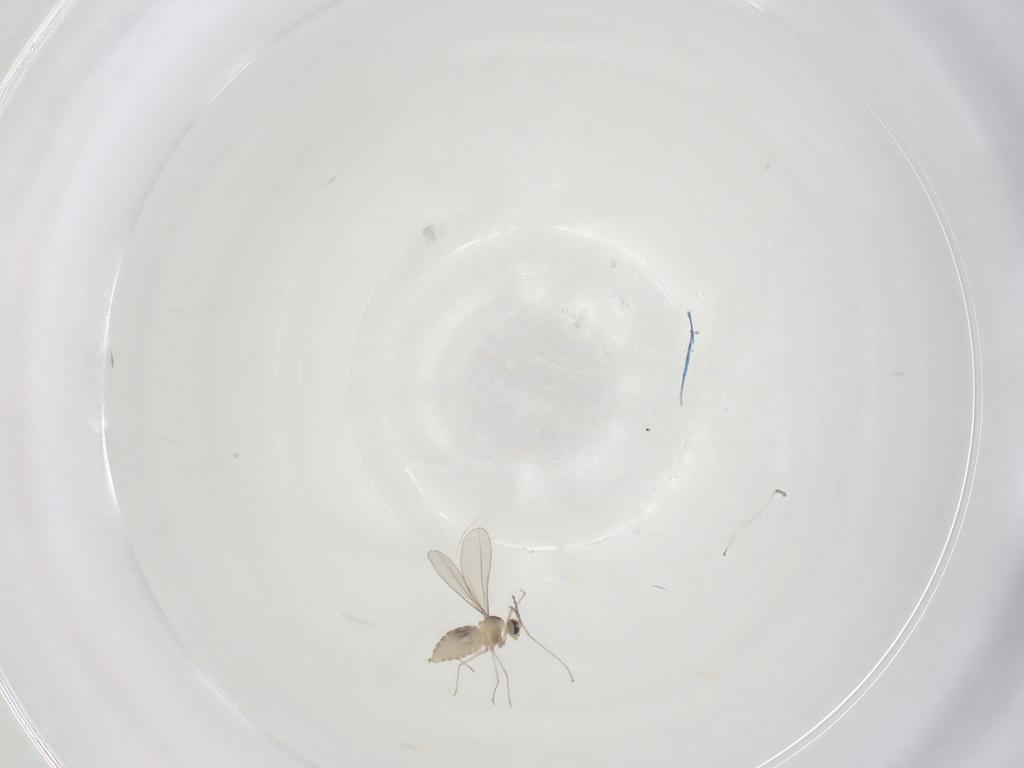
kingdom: Animalia
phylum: Arthropoda
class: Insecta
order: Diptera
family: Cecidomyiidae
